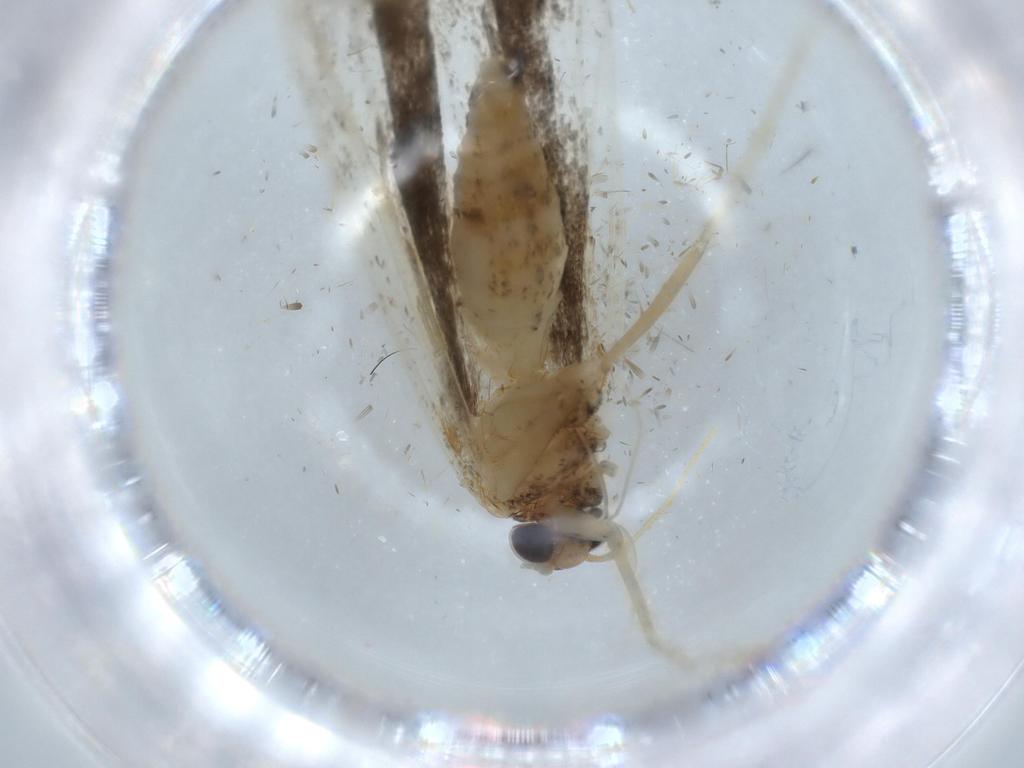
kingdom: Animalia
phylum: Arthropoda
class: Insecta
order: Lepidoptera
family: Autostichidae
